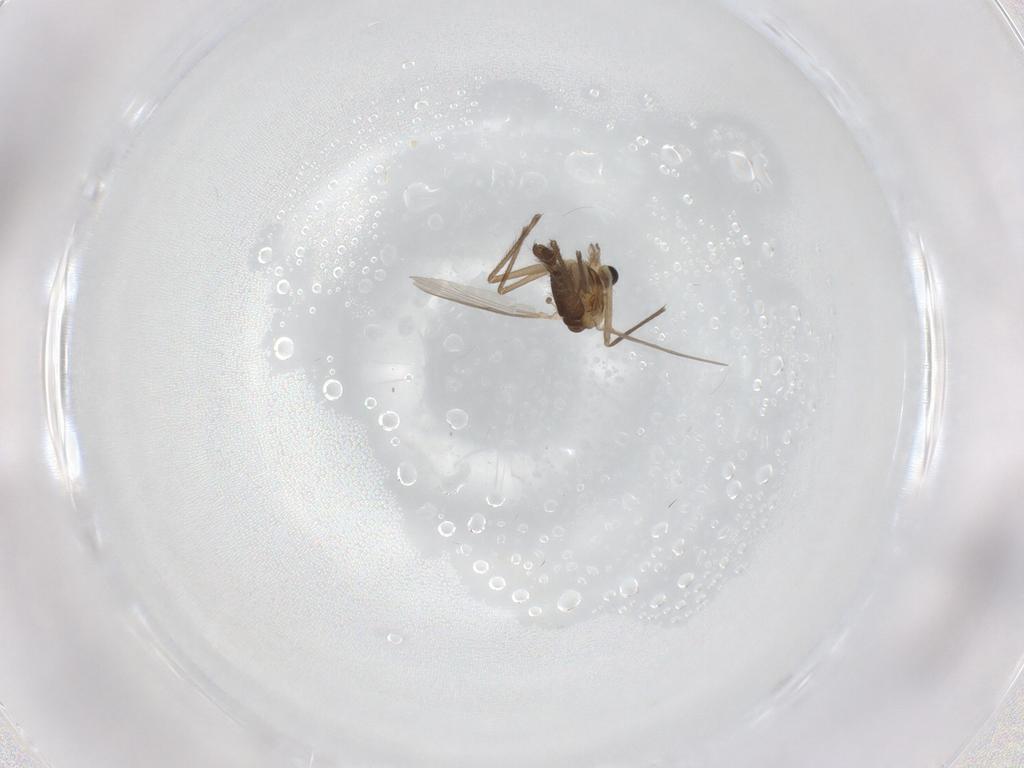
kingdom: Animalia
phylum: Arthropoda
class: Insecta
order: Diptera
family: Chironomidae
